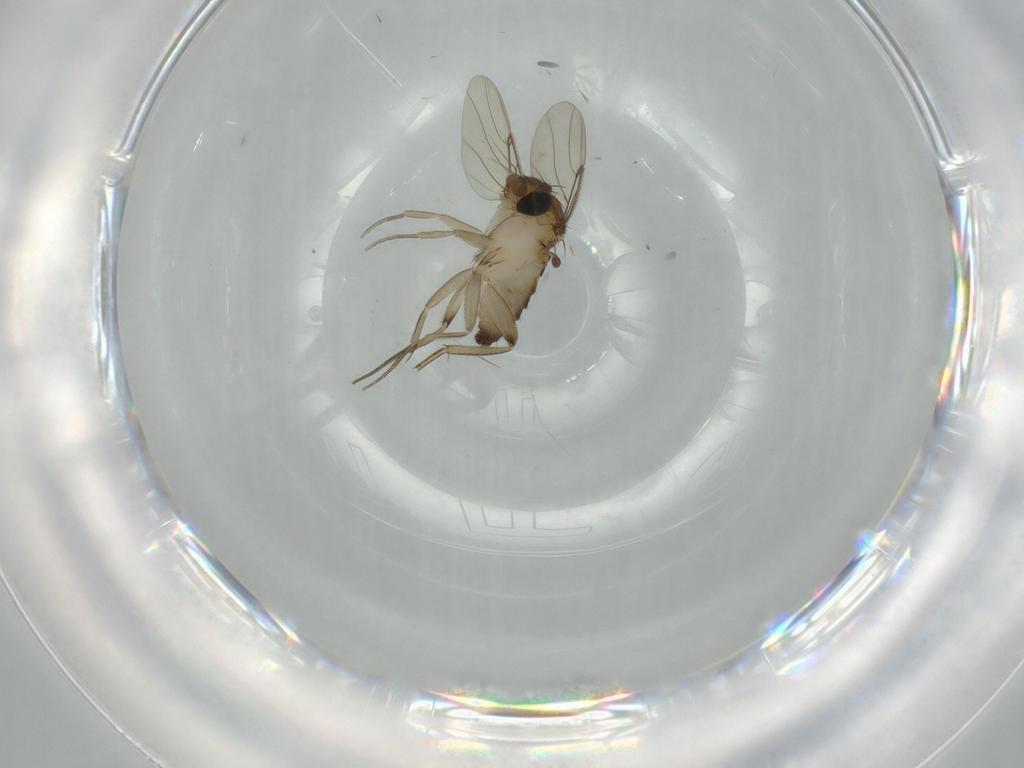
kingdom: Animalia
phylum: Arthropoda
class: Insecta
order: Diptera
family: Phoridae
